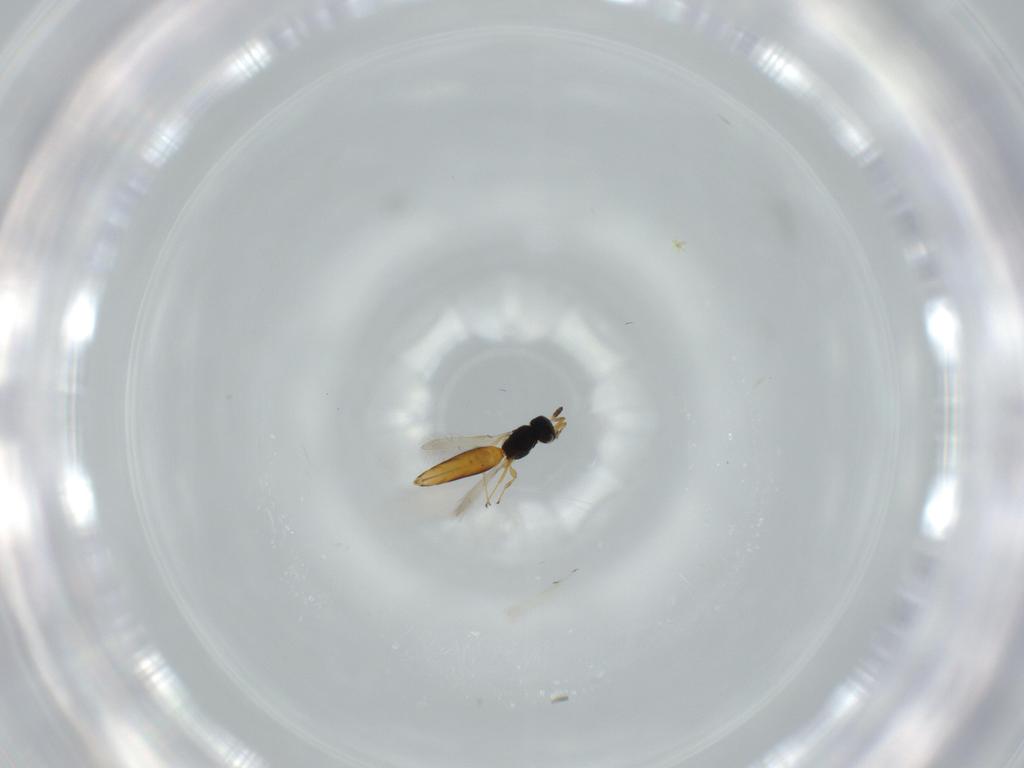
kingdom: Animalia
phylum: Arthropoda
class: Insecta
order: Hymenoptera
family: Scelionidae
